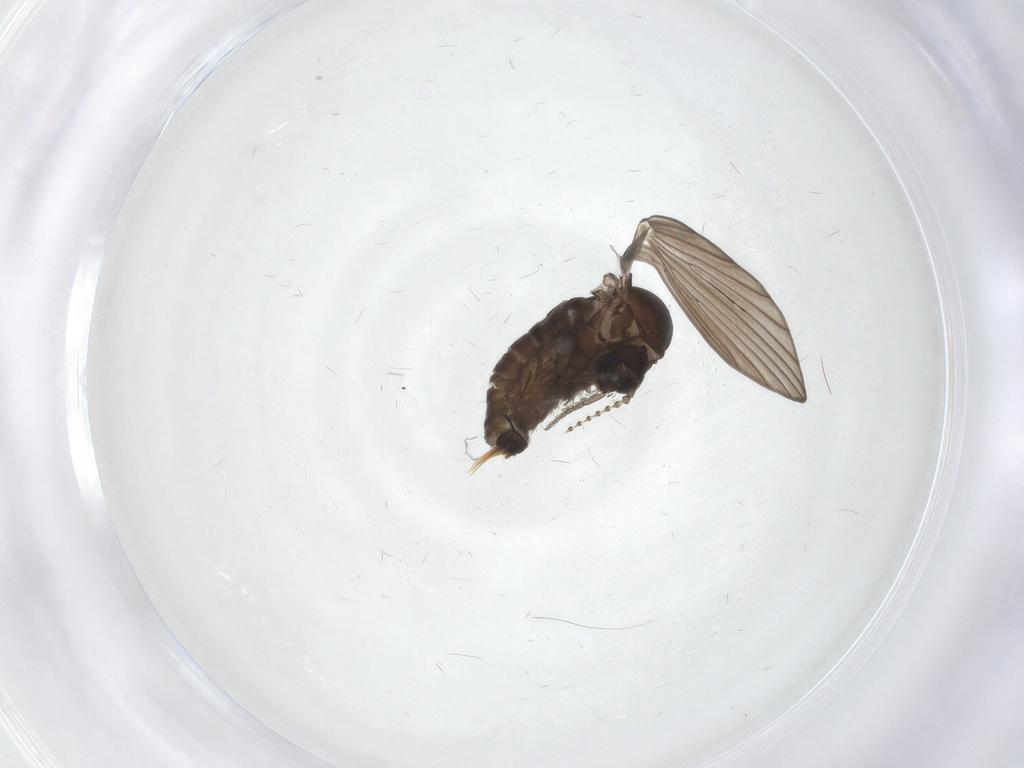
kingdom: Animalia
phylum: Arthropoda
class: Insecta
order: Diptera
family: Psychodidae
